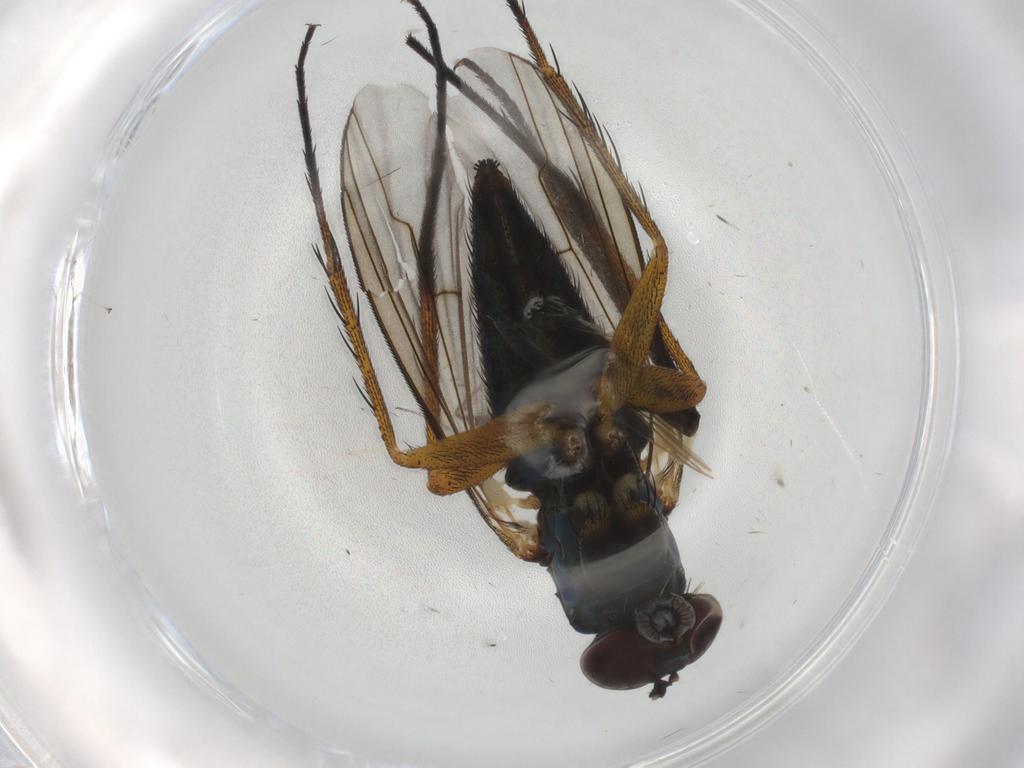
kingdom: Animalia
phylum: Arthropoda
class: Insecta
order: Diptera
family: Bombyliidae
